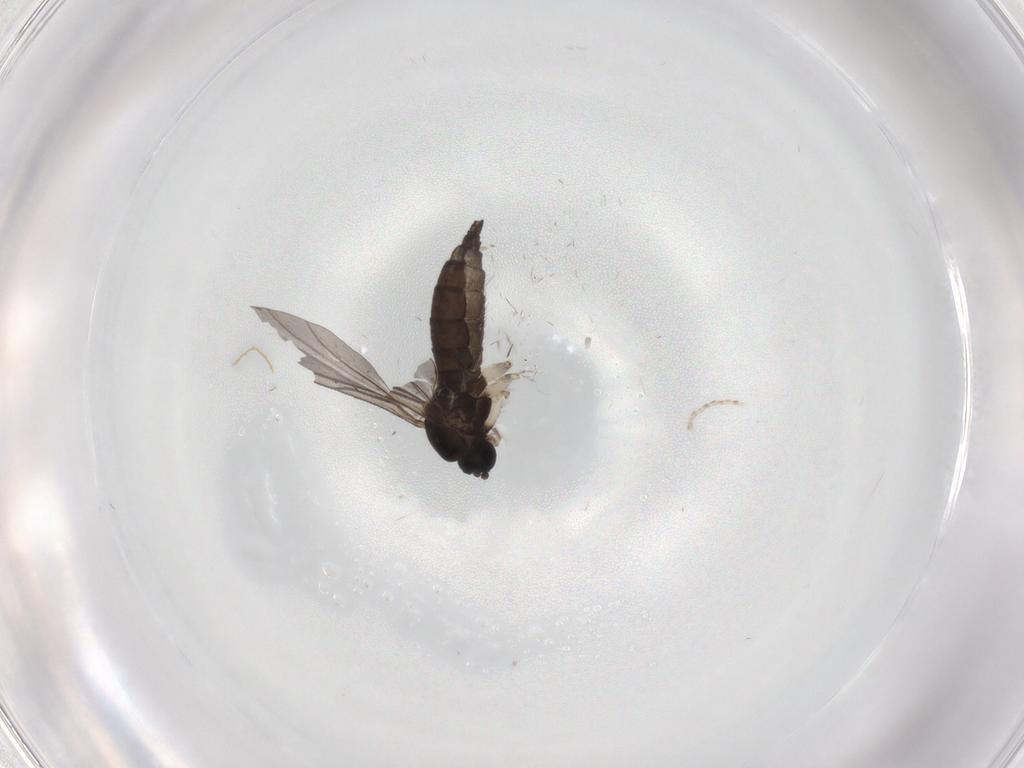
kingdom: Animalia
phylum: Arthropoda
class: Insecta
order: Diptera
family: Sciaridae
